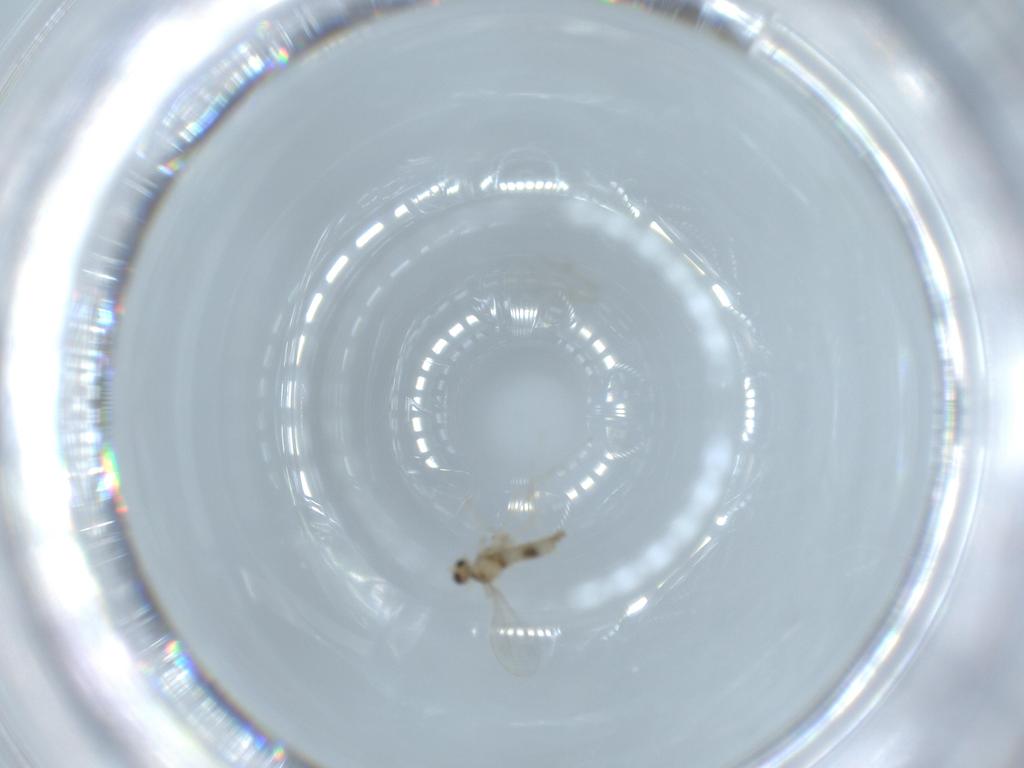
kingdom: Animalia
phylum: Arthropoda
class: Insecta
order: Diptera
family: Cecidomyiidae
